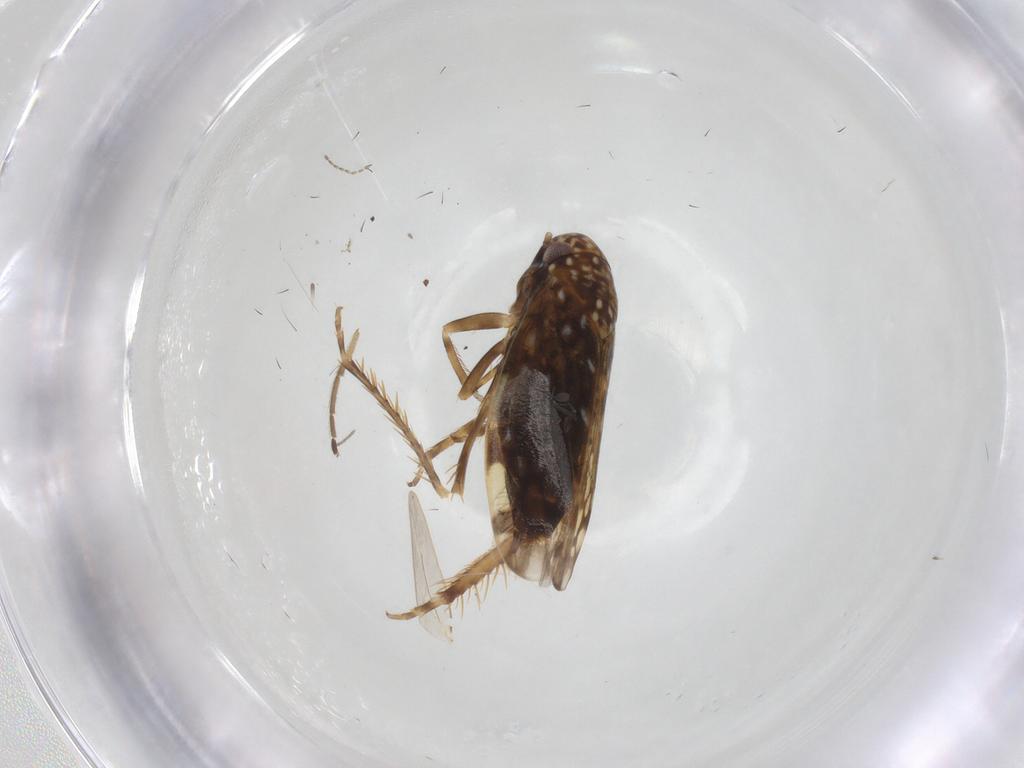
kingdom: Animalia
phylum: Arthropoda
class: Insecta
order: Hemiptera
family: Cicadellidae
